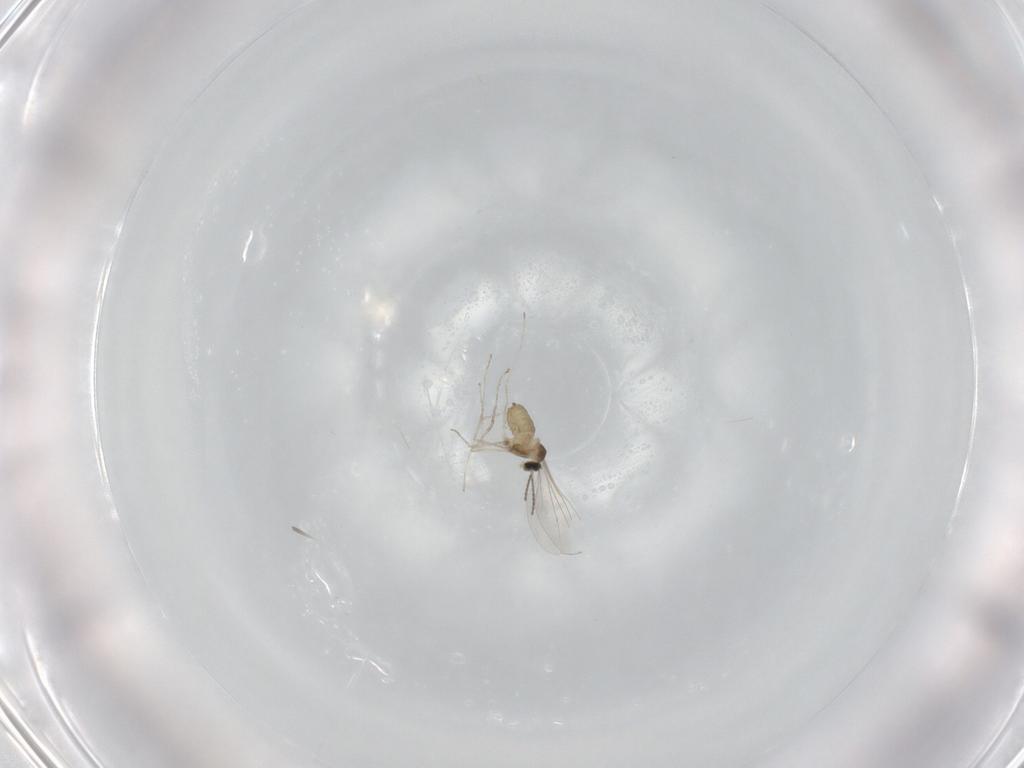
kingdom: Animalia
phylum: Arthropoda
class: Insecta
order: Diptera
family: Cecidomyiidae
